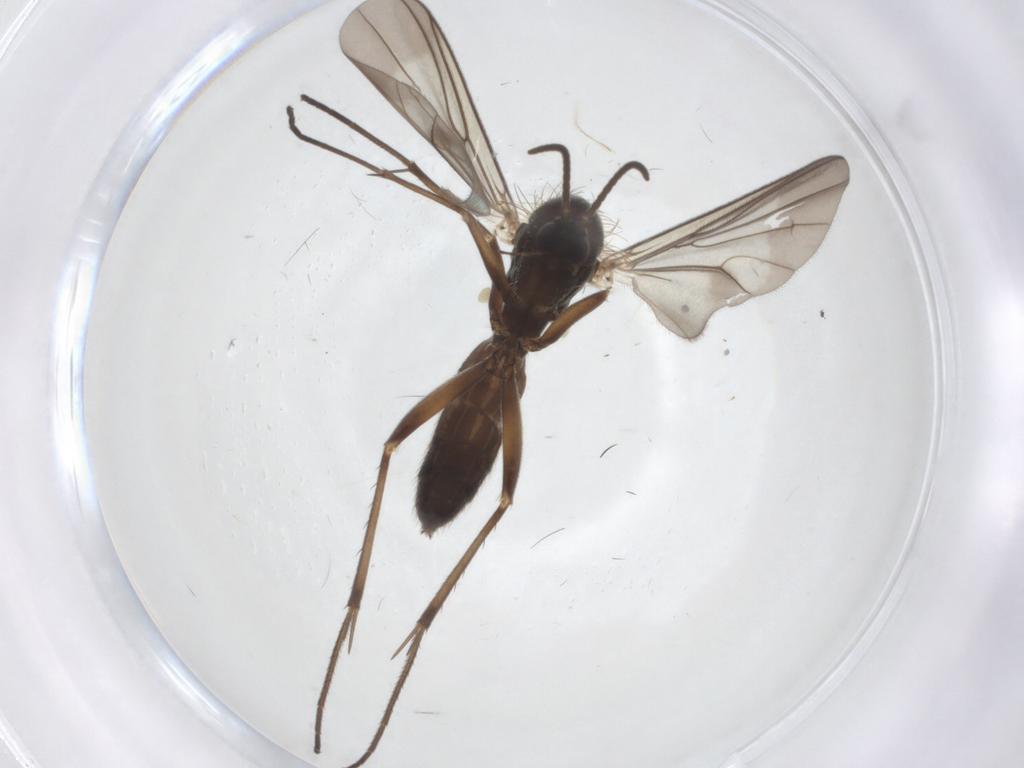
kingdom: Animalia
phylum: Arthropoda
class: Insecta
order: Diptera
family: Mycetophilidae
